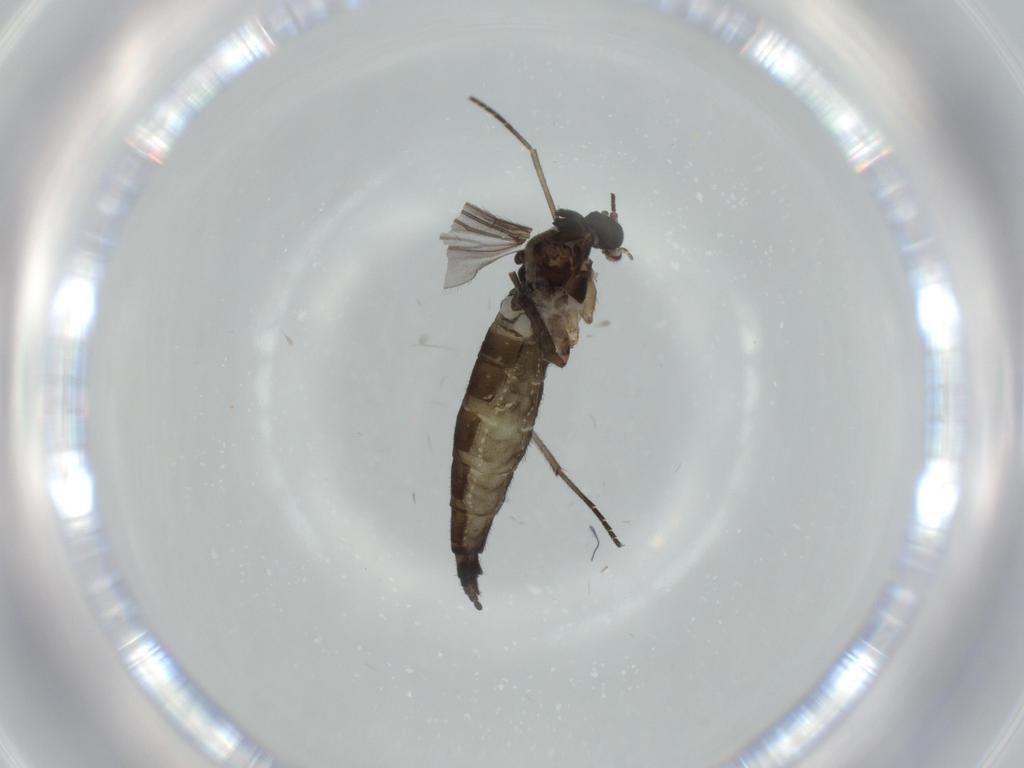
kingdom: Animalia
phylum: Arthropoda
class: Insecta
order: Diptera
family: Sciaridae
